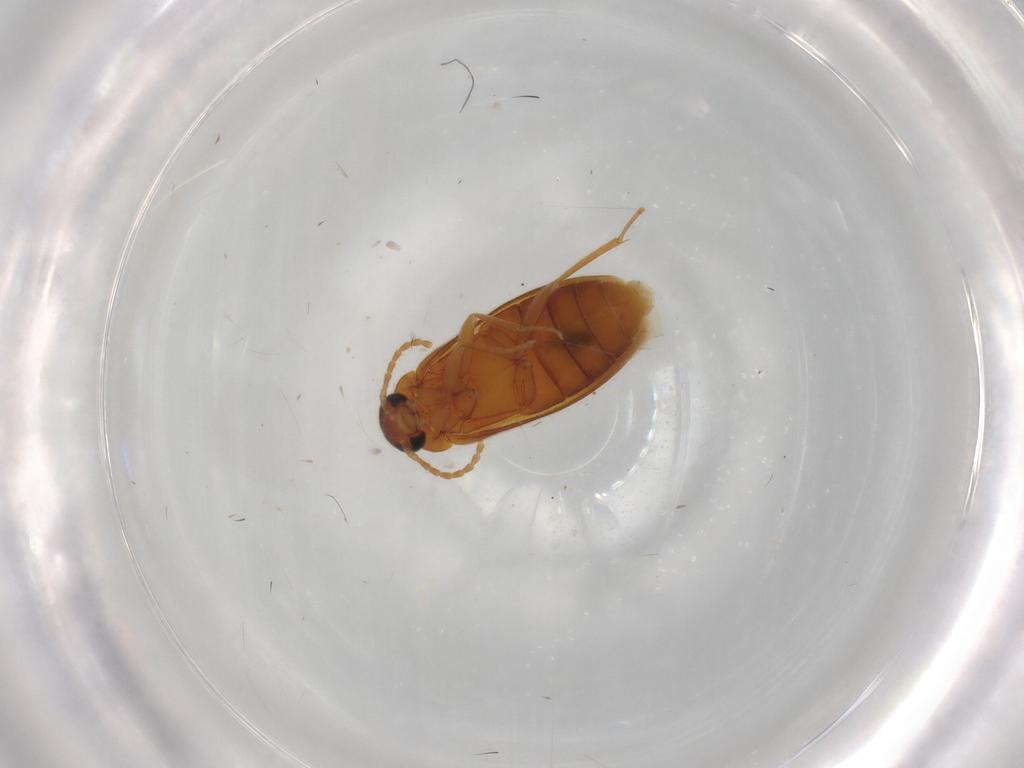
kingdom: Animalia
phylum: Arthropoda
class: Insecta
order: Coleoptera
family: Scraptiidae
